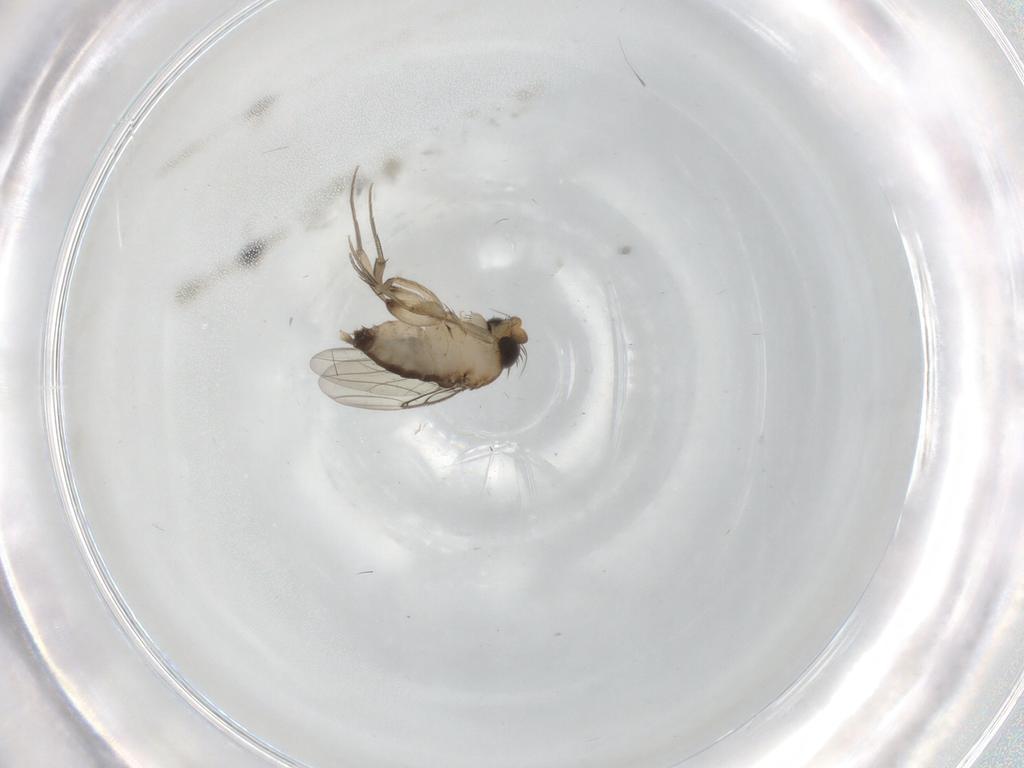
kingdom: Animalia
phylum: Arthropoda
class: Insecta
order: Diptera
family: Phoridae
